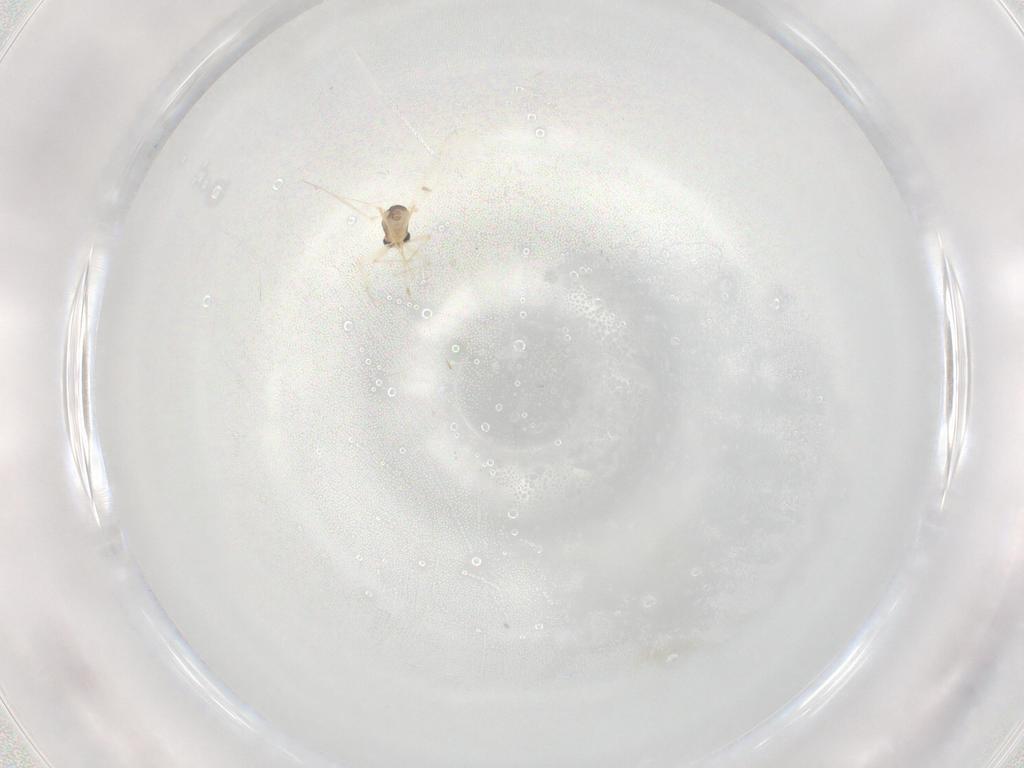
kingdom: Animalia
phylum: Arthropoda
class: Insecta
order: Diptera
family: Chironomidae
